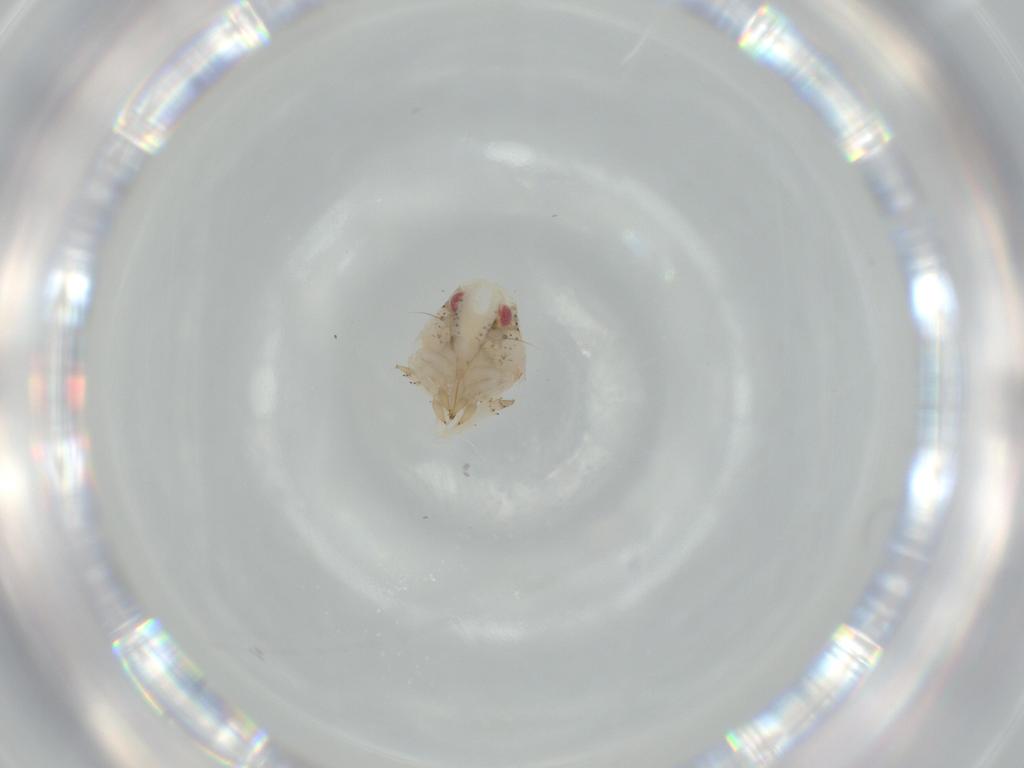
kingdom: Animalia
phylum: Arthropoda
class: Insecta
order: Hemiptera
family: Acanaloniidae
